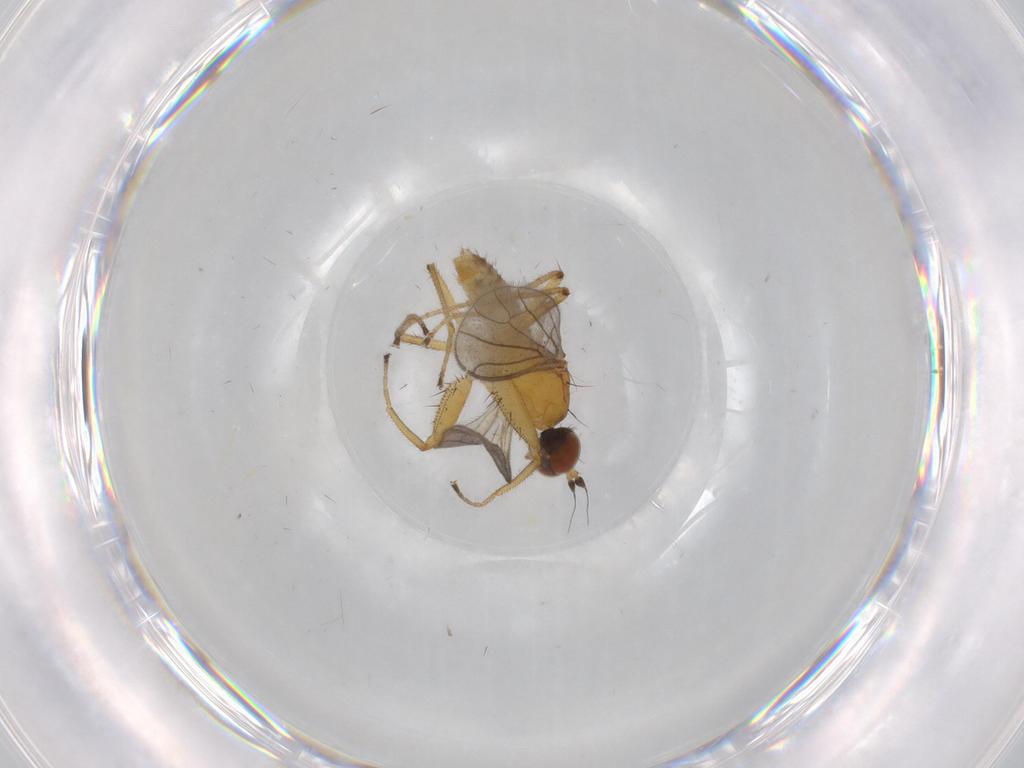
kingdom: Animalia
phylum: Arthropoda
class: Insecta
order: Diptera
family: Empididae
